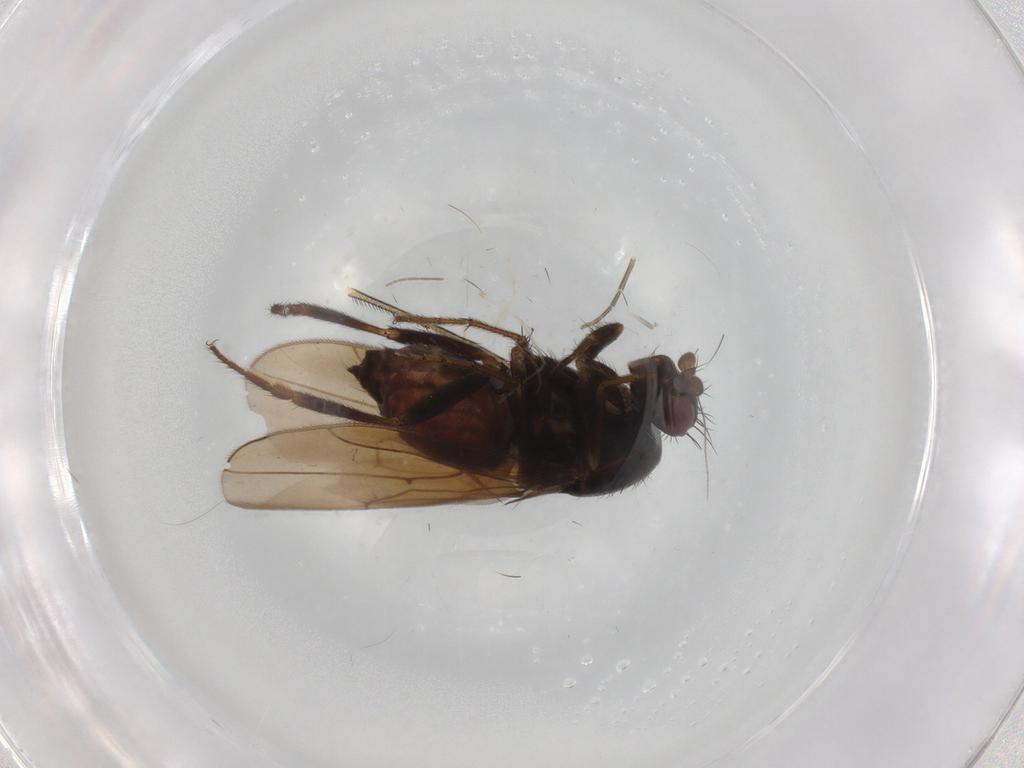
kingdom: Animalia
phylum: Arthropoda
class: Insecta
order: Diptera
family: Sphaeroceridae
